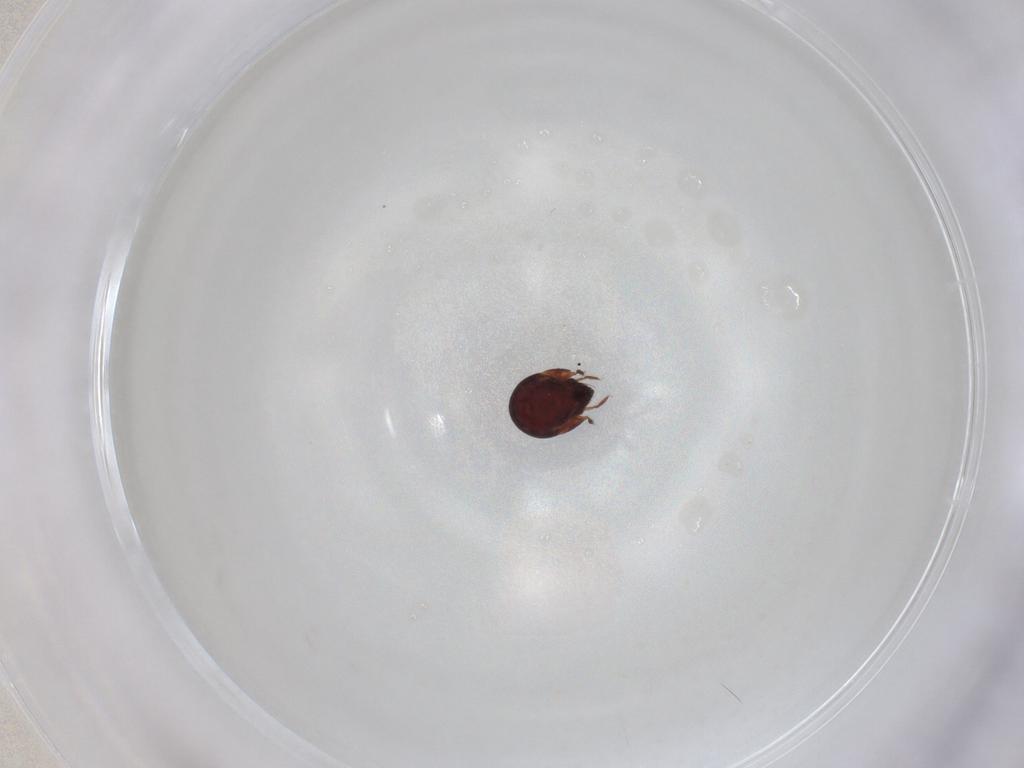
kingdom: Animalia
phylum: Arthropoda
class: Arachnida
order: Sarcoptiformes
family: Humerobatidae
